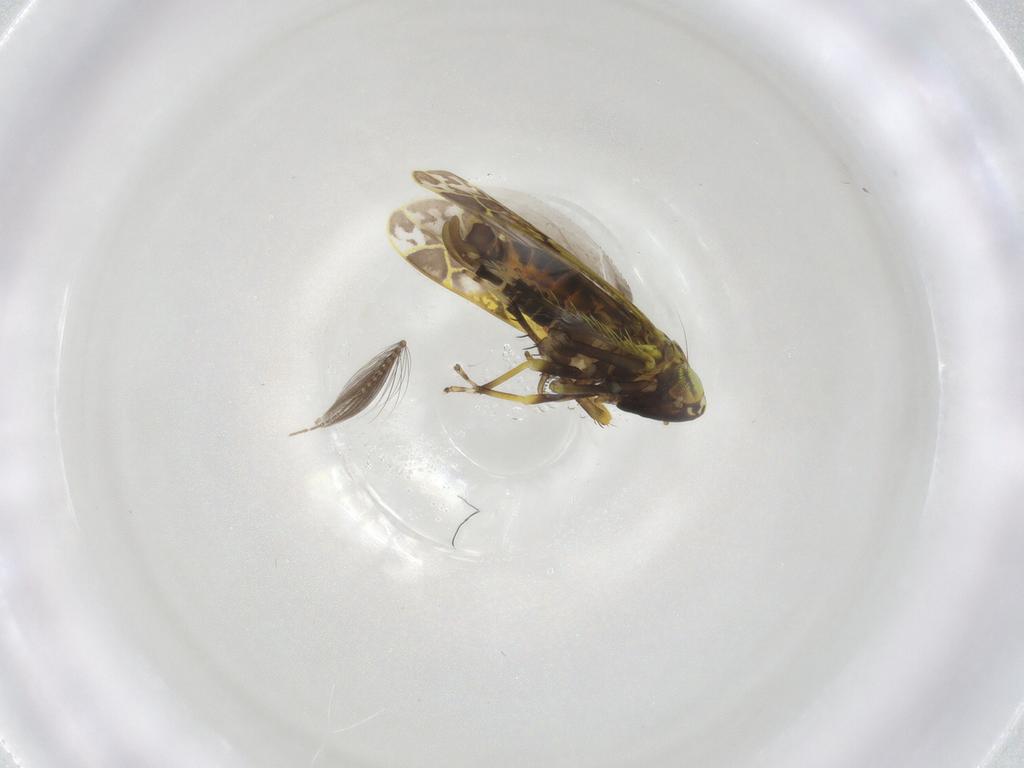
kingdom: Animalia
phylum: Arthropoda
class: Insecta
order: Hemiptera
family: Cicadellidae
